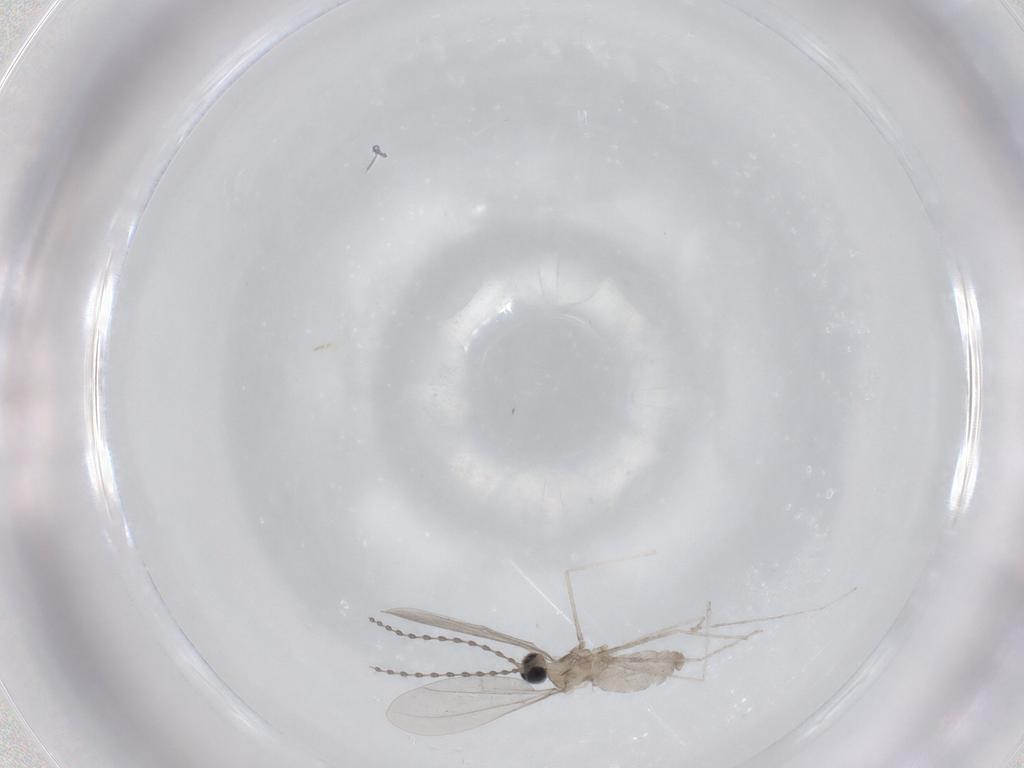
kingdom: Animalia
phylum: Arthropoda
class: Insecta
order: Diptera
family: Cecidomyiidae
